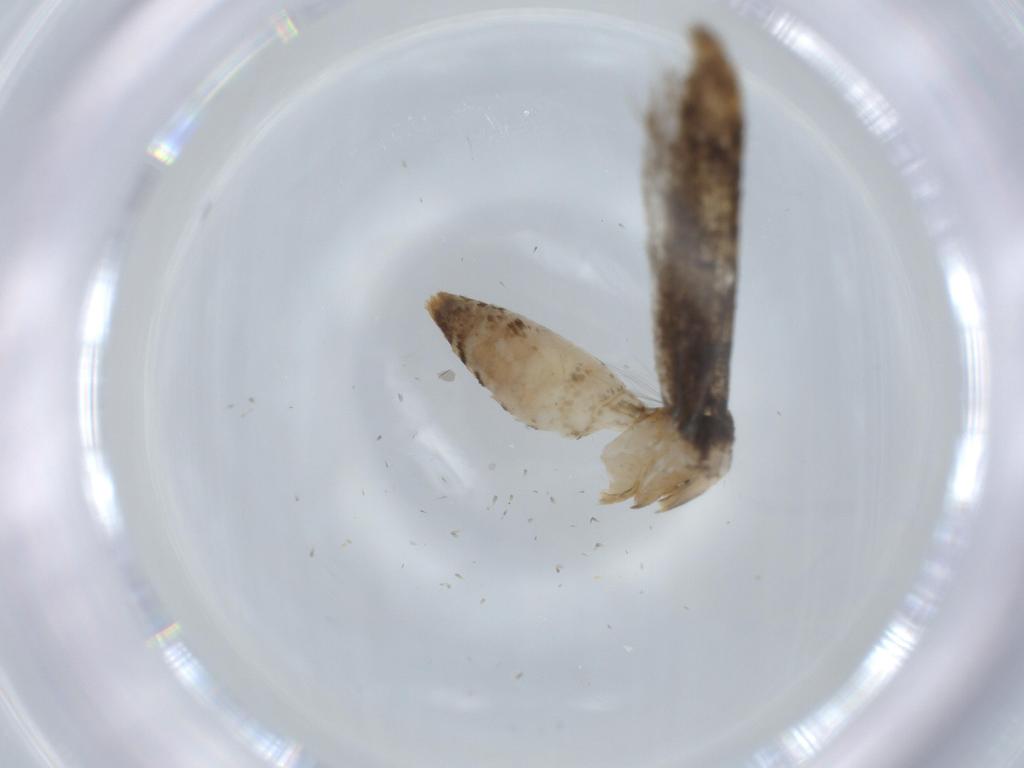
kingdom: Animalia
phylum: Arthropoda
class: Insecta
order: Lepidoptera
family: Tineidae
